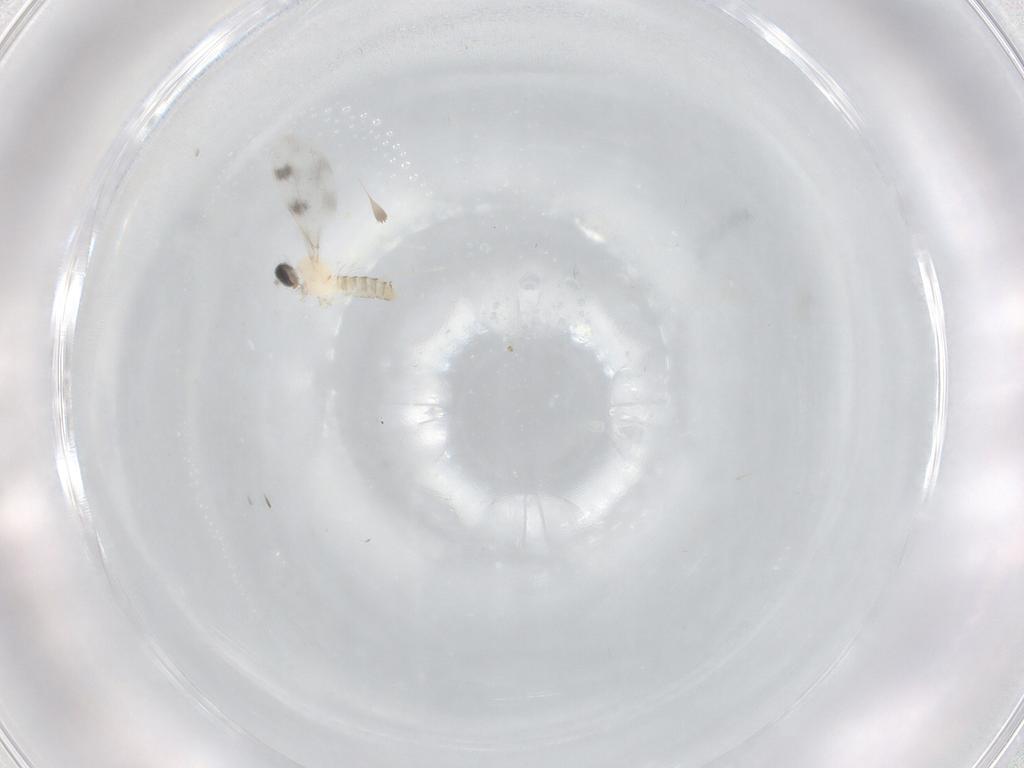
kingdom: Animalia
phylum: Arthropoda
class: Insecta
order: Diptera
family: Cecidomyiidae
